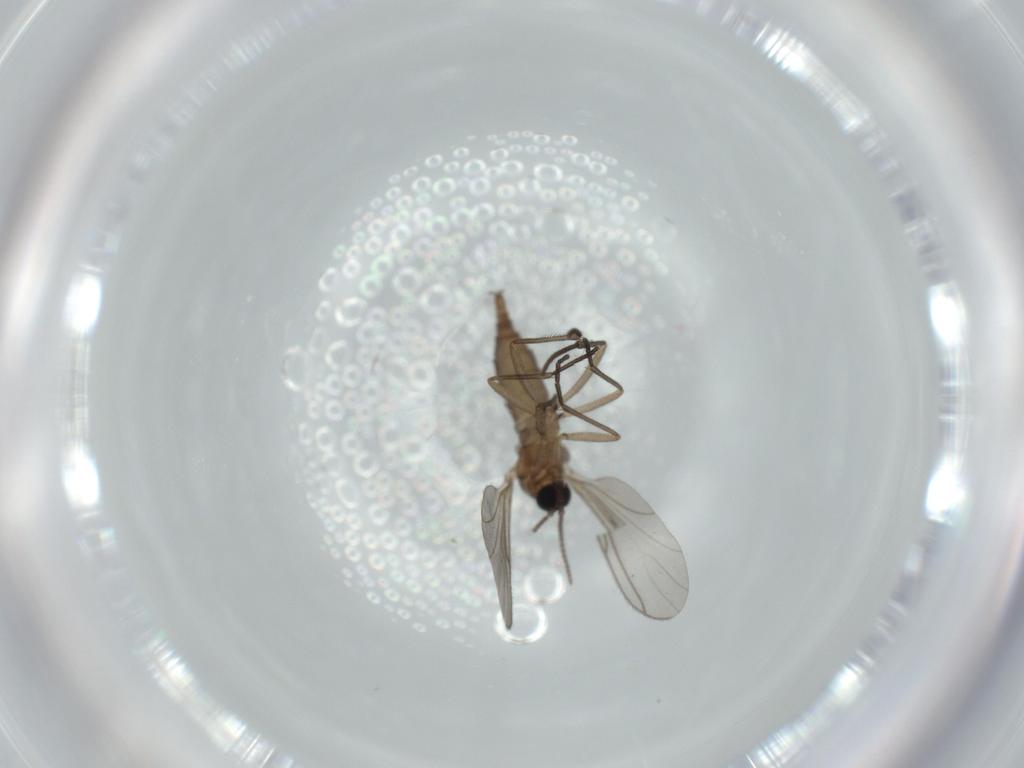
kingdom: Animalia
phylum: Arthropoda
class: Insecta
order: Diptera
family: Sciaridae
